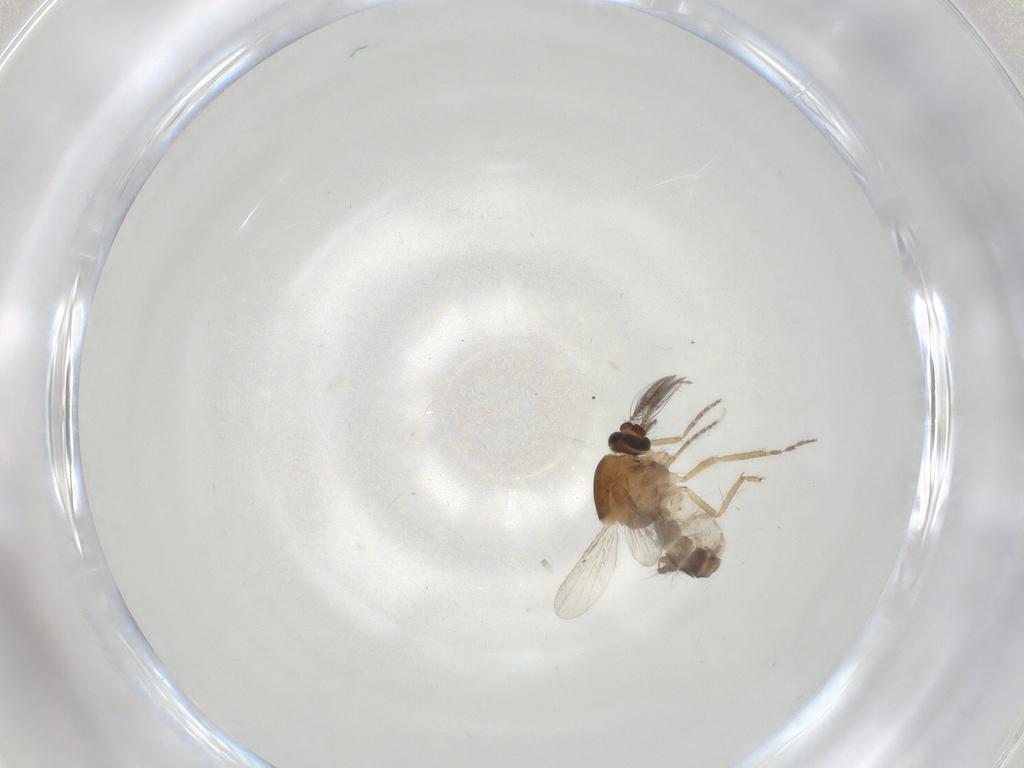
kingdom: Animalia
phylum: Arthropoda
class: Insecta
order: Diptera
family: Ceratopogonidae
